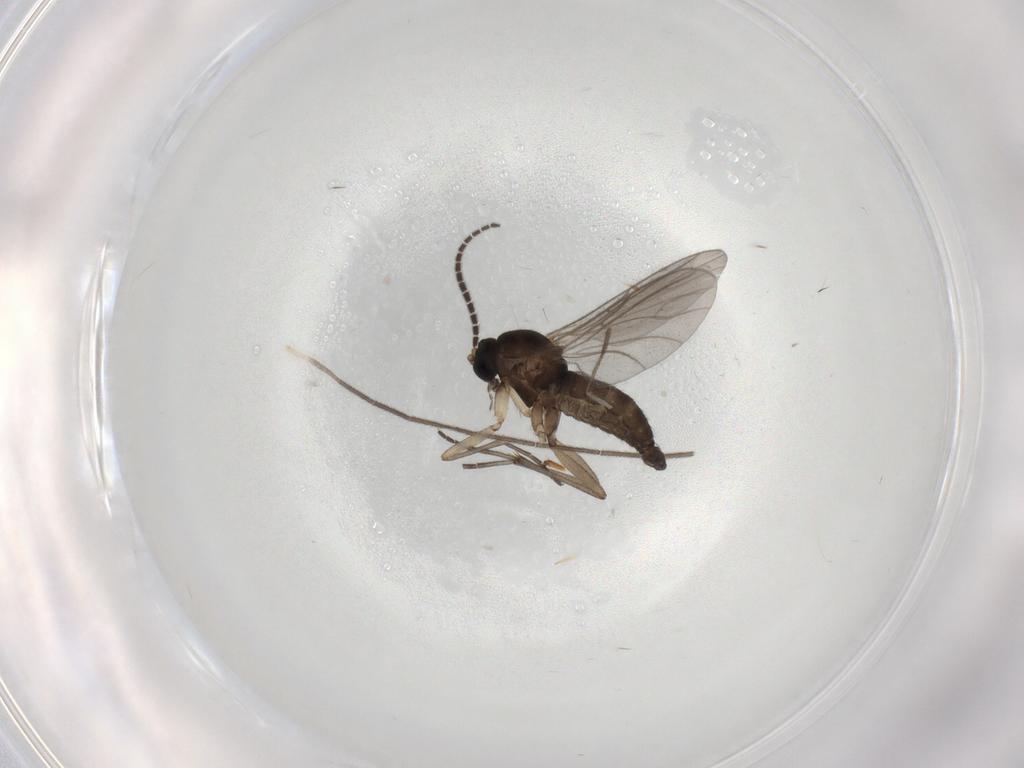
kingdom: Animalia
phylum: Arthropoda
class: Insecta
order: Diptera
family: Sciaridae
